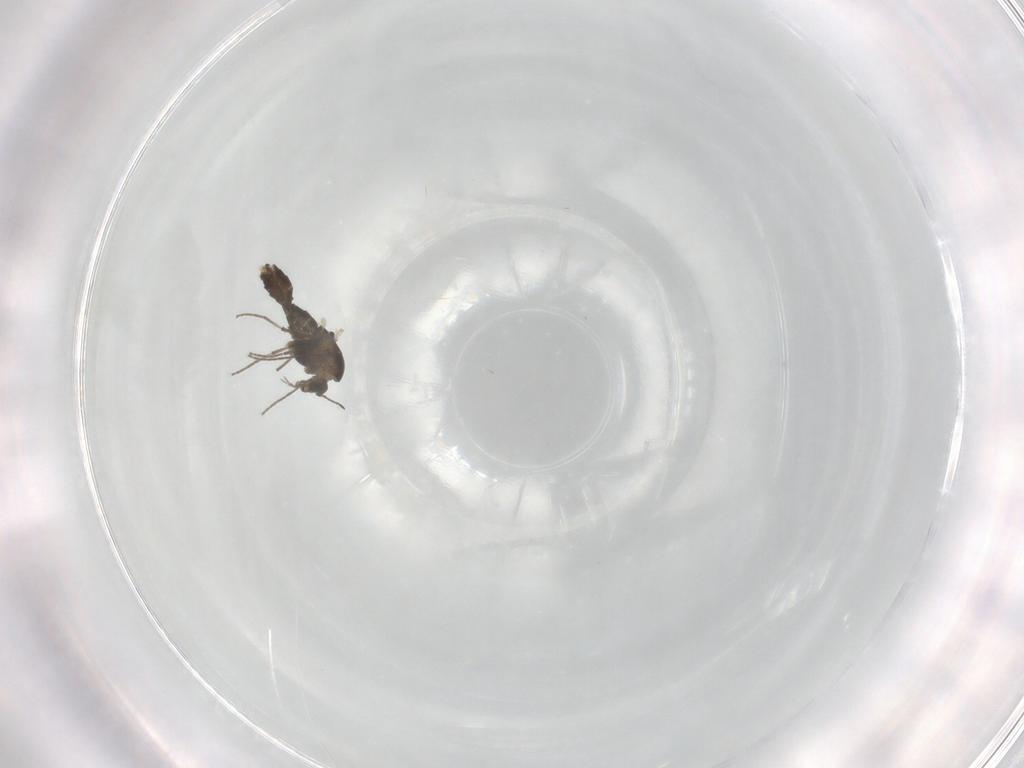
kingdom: Animalia
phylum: Arthropoda
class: Insecta
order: Diptera
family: Chironomidae
